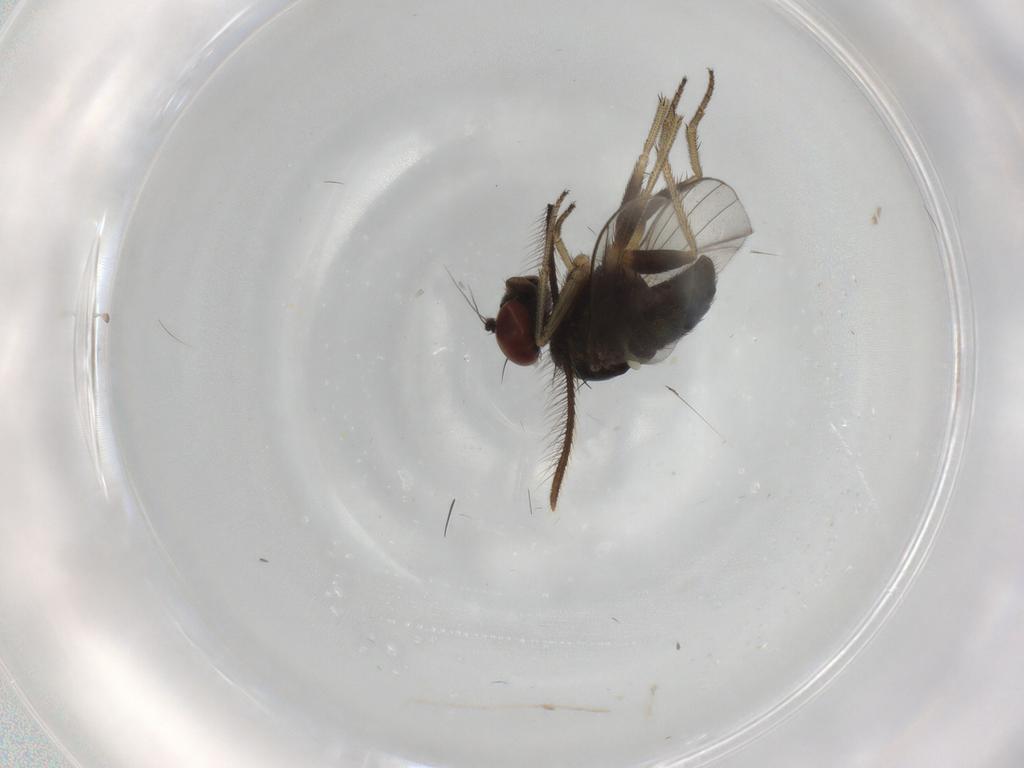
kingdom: Animalia
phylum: Arthropoda
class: Insecta
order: Diptera
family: Dolichopodidae
